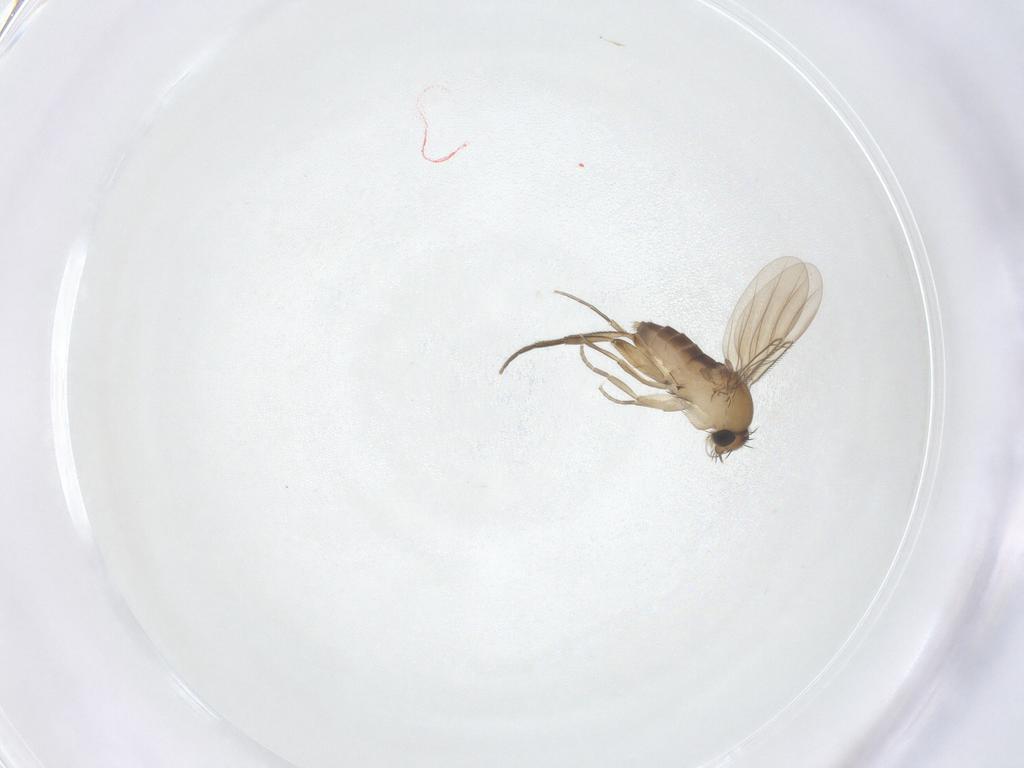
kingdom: Animalia
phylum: Arthropoda
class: Insecta
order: Diptera
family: Phoridae
